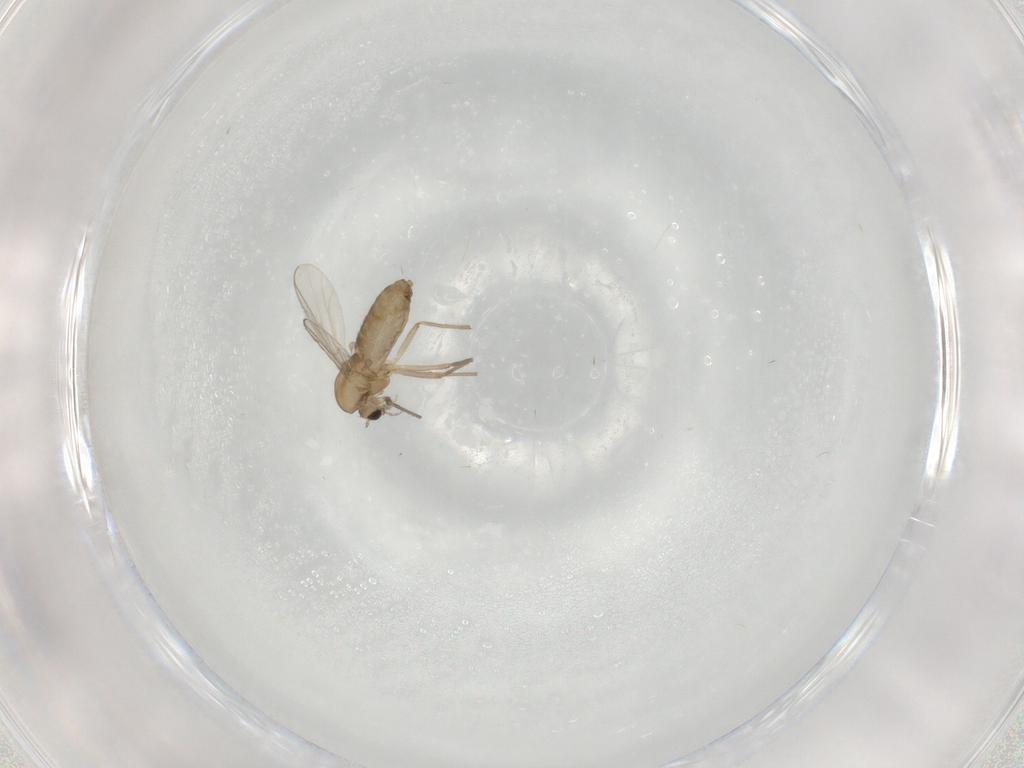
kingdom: Animalia
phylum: Arthropoda
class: Insecta
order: Diptera
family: Chironomidae
